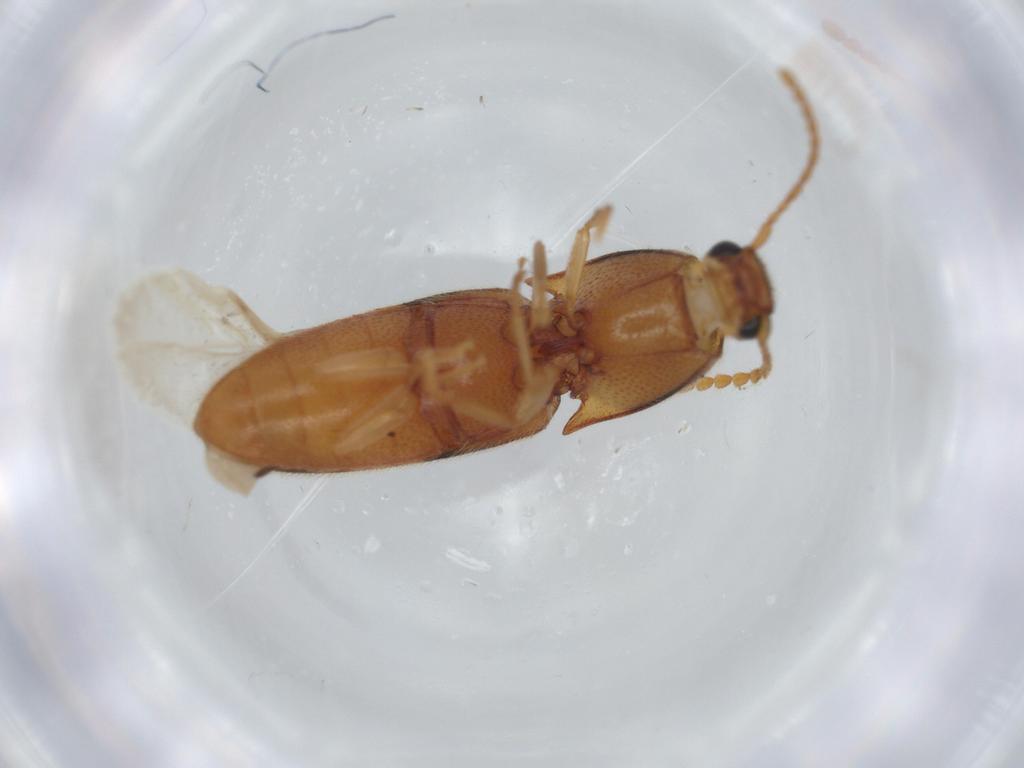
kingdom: Animalia
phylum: Arthropoda
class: Insecta
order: Coleoptera
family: Elateridae
